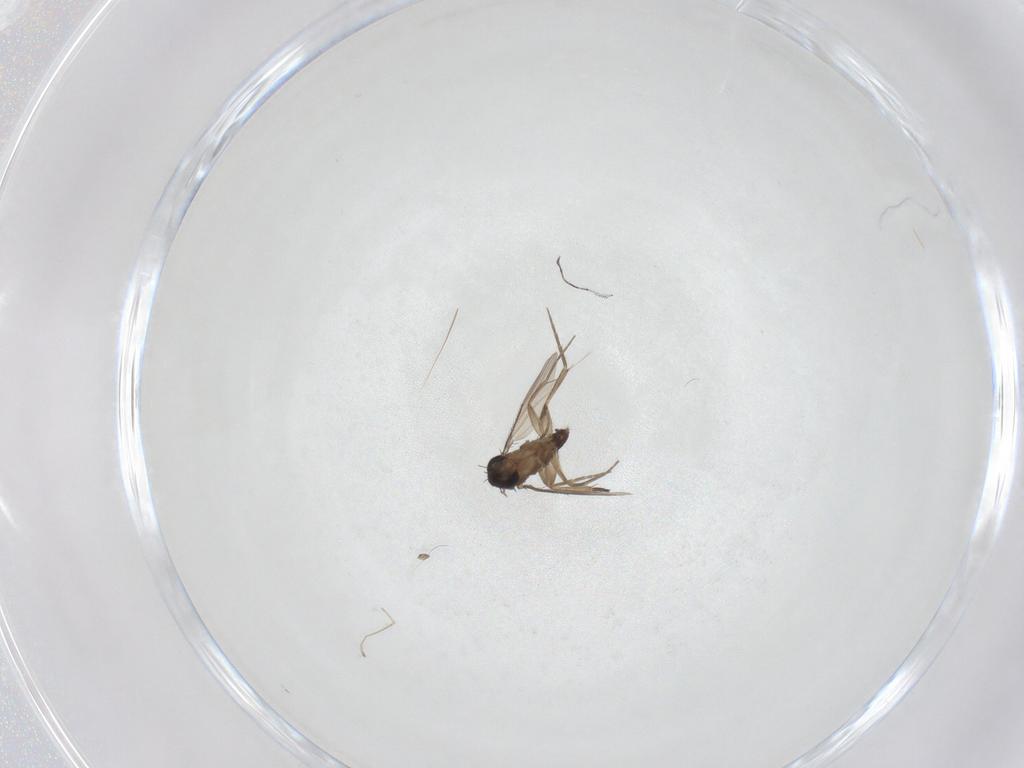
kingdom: Animalia
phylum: Arthropoda
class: Insecta
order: Diptera
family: Phoridae
